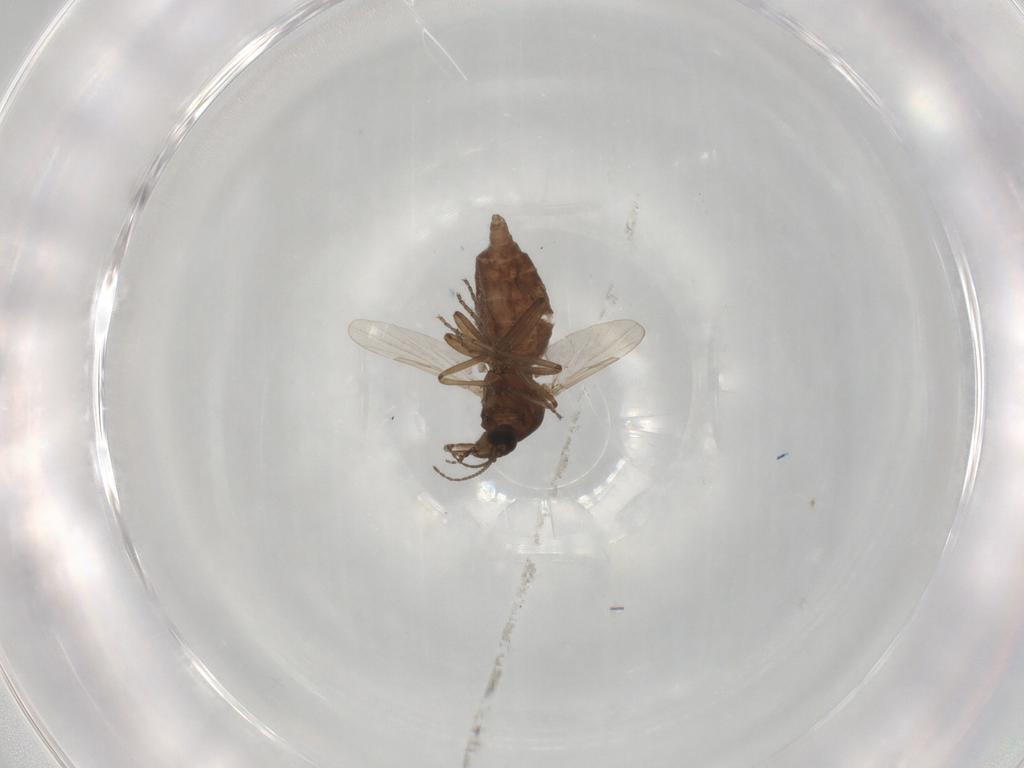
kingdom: Animalia
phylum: Arthropoda
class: Insecta
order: Diptera
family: Ceratopogonidae
